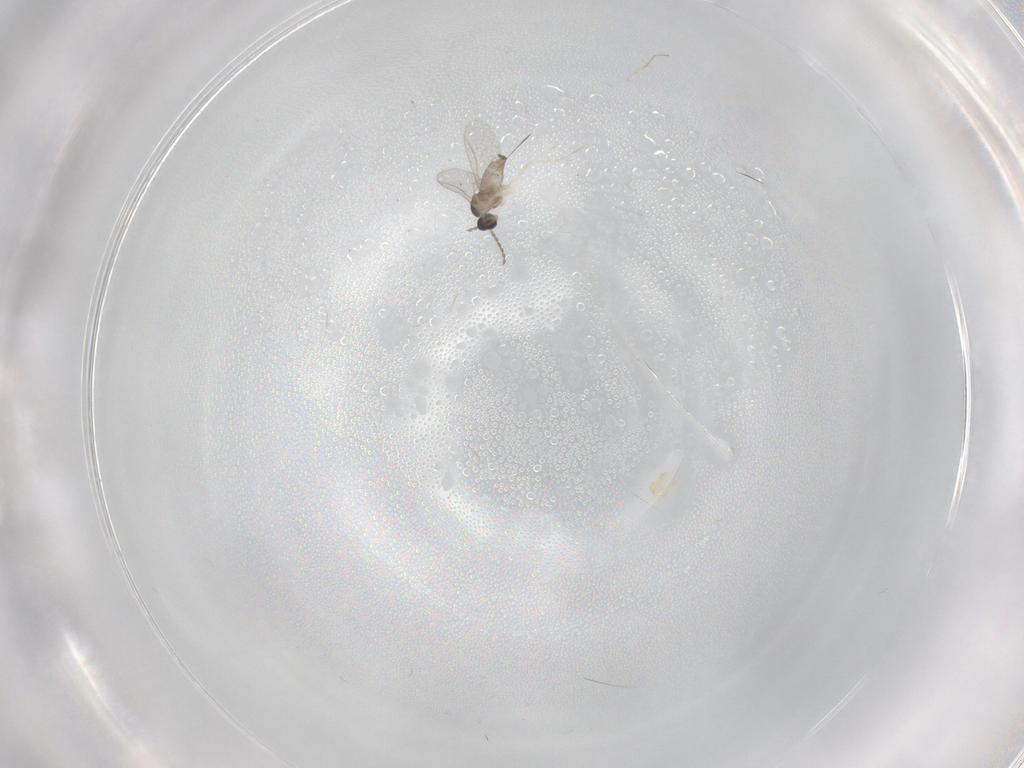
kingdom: Animalia
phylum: Arthropoda
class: Insecta
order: Diptera
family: Cecidomyiidae
